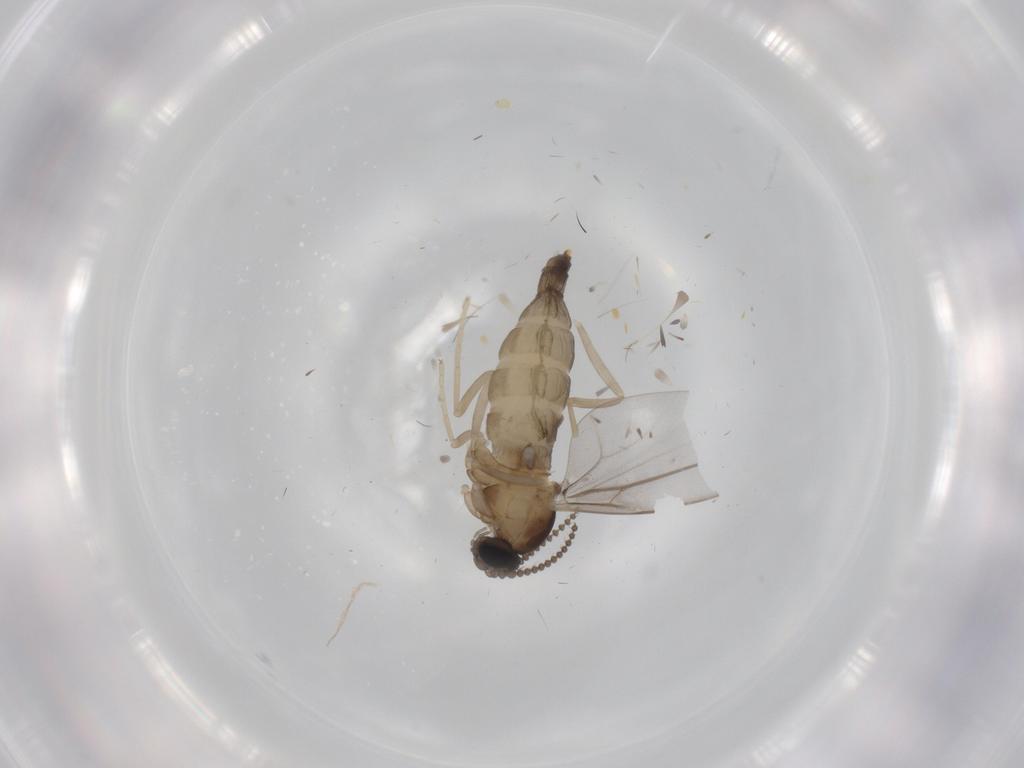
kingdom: Animalia
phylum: Arthropoda
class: Insecta
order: Diptera
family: Cecidomyiidae
